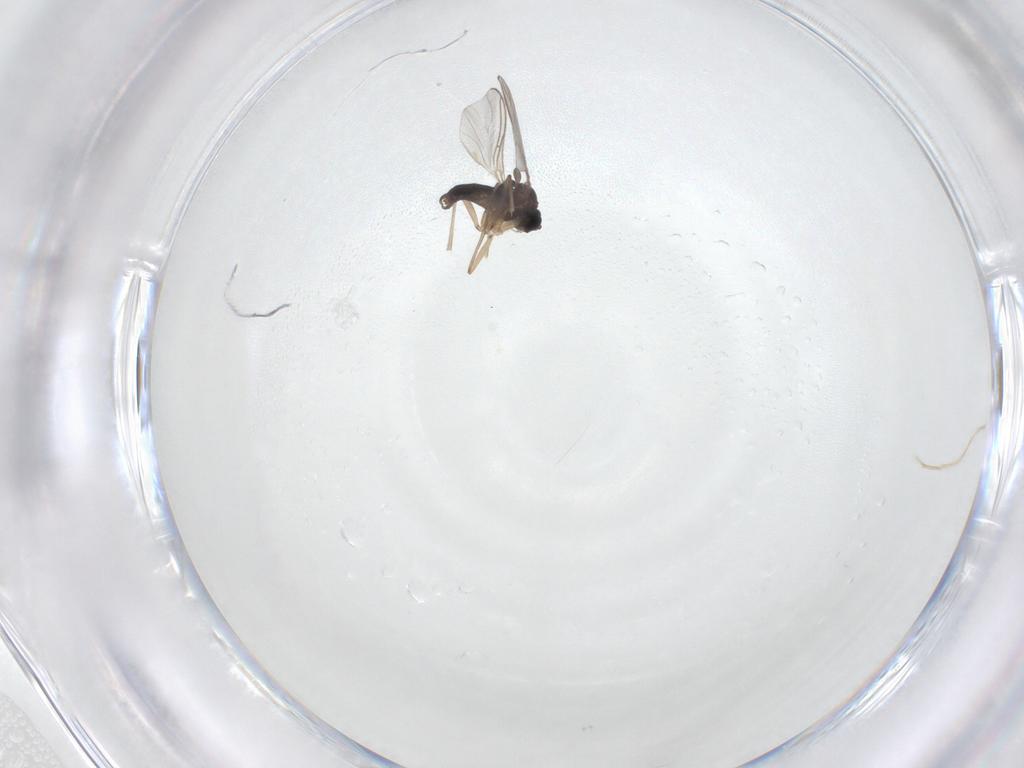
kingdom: Animalia
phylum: Arthropoda
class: Insecta
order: Diptera
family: Sciaridae
